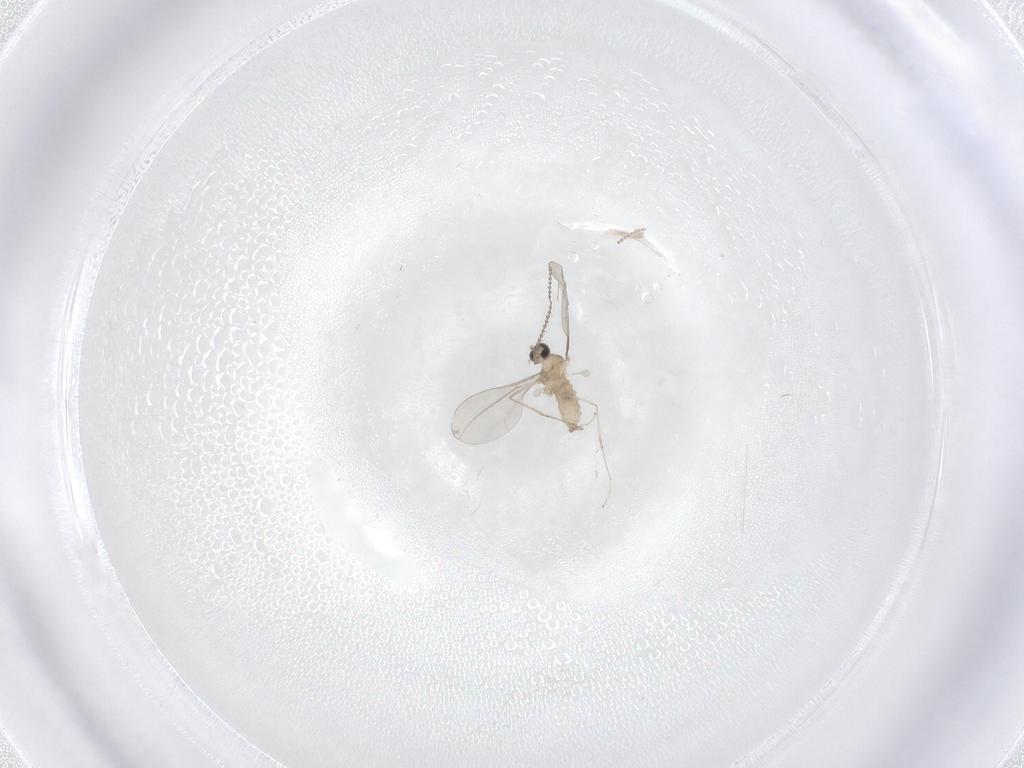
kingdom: Animalia
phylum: Arthropoda
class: Insecta
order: Diptera
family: Cecidomyiidae
